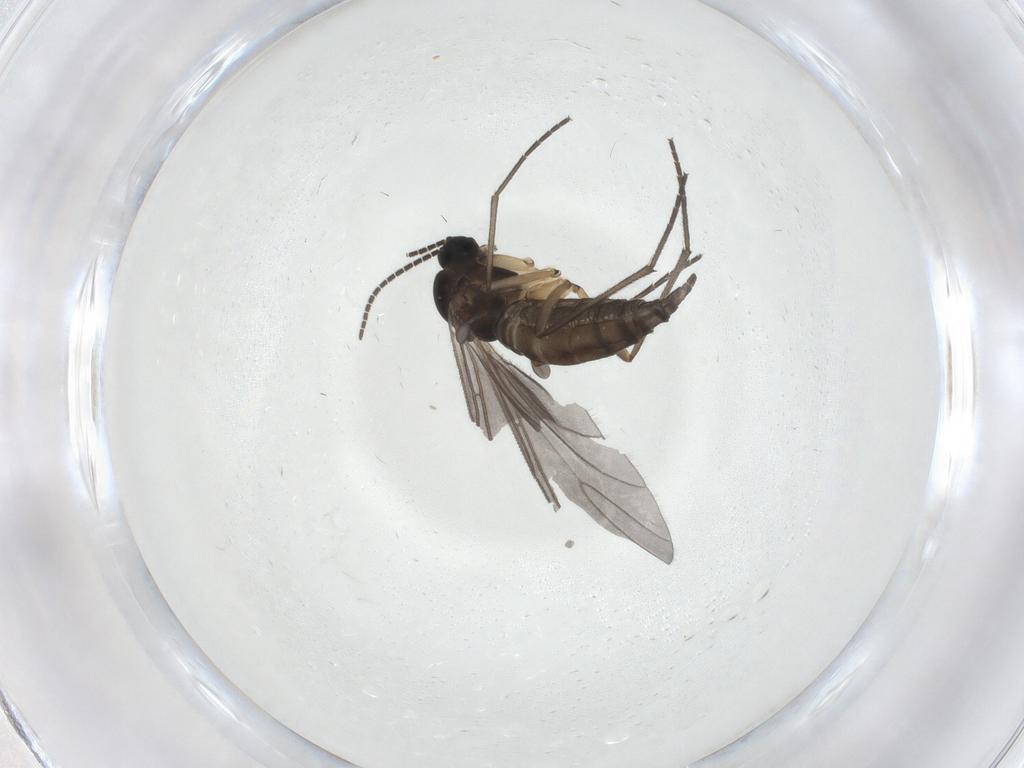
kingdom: Animalia
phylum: Arthropoda
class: Insecta
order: Diptera
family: Sciaridae
